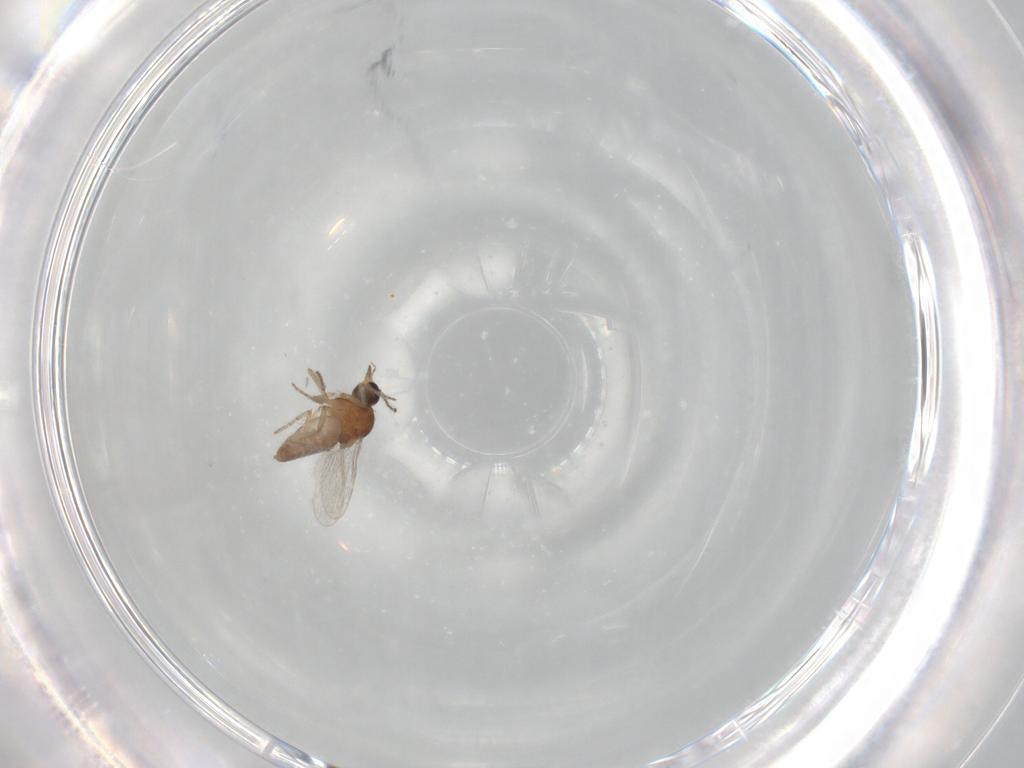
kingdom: Animalia
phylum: Arthropoda
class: Insecta
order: Diptera
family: Ceratopogonidae
